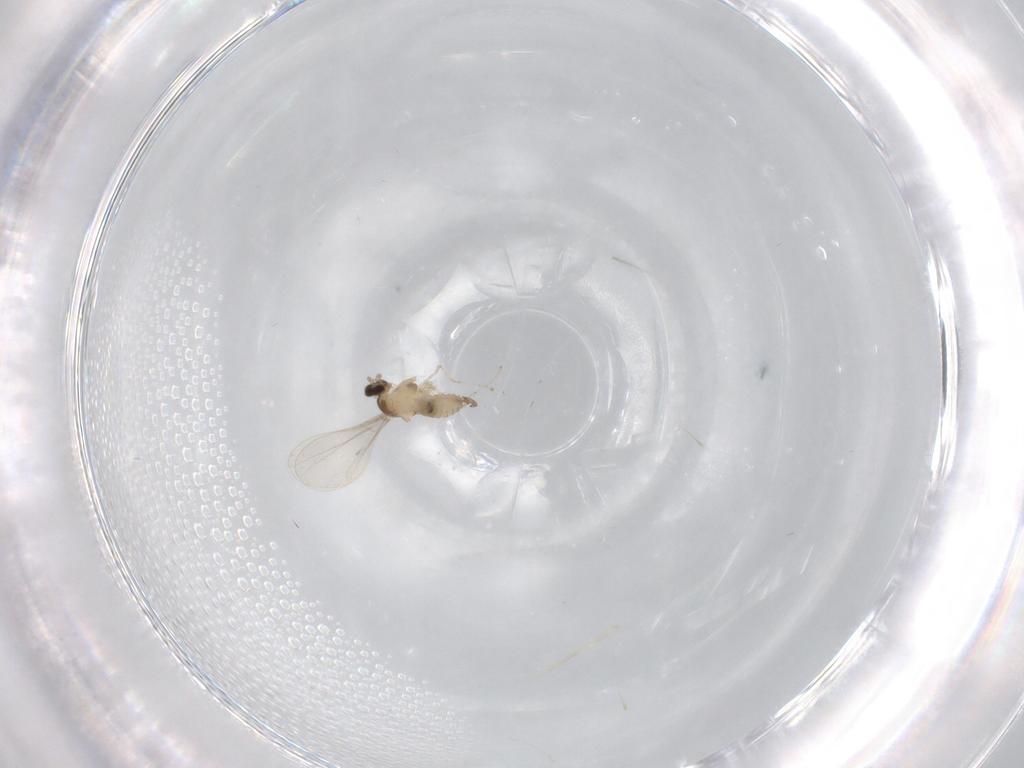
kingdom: Animalia
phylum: Arthropoda
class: Insecta
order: Diptera
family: Cecidomyiidae
